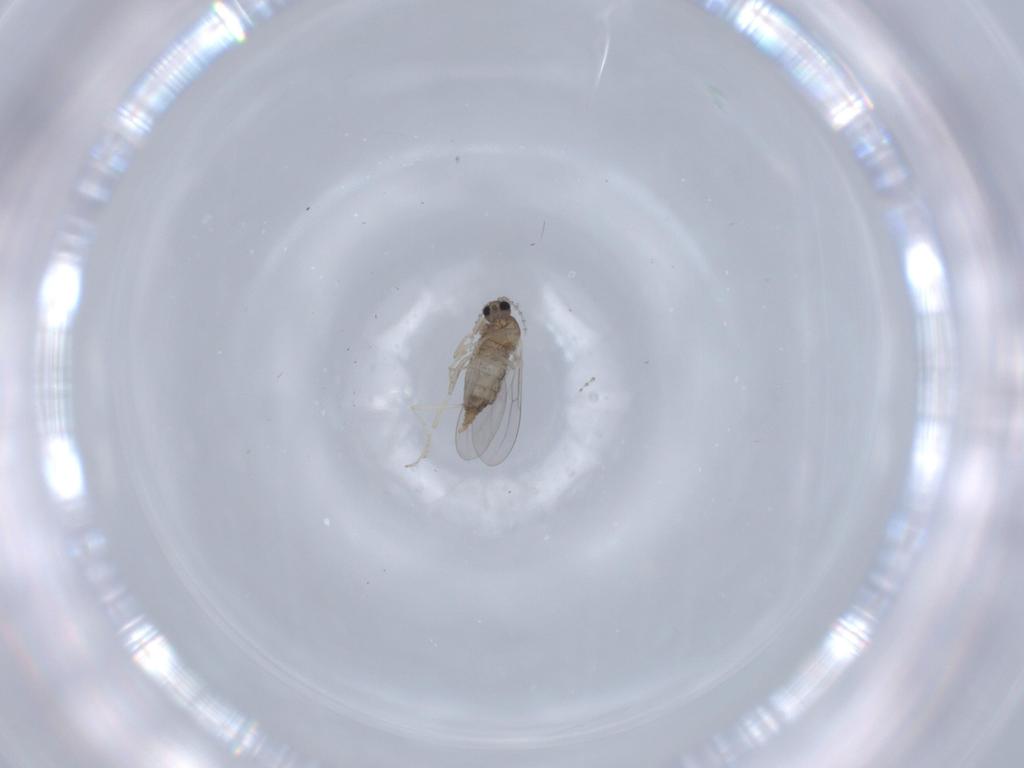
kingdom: Animalia
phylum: Arthropoda
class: Insecta
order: Diptera
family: Cecidomyiidae
